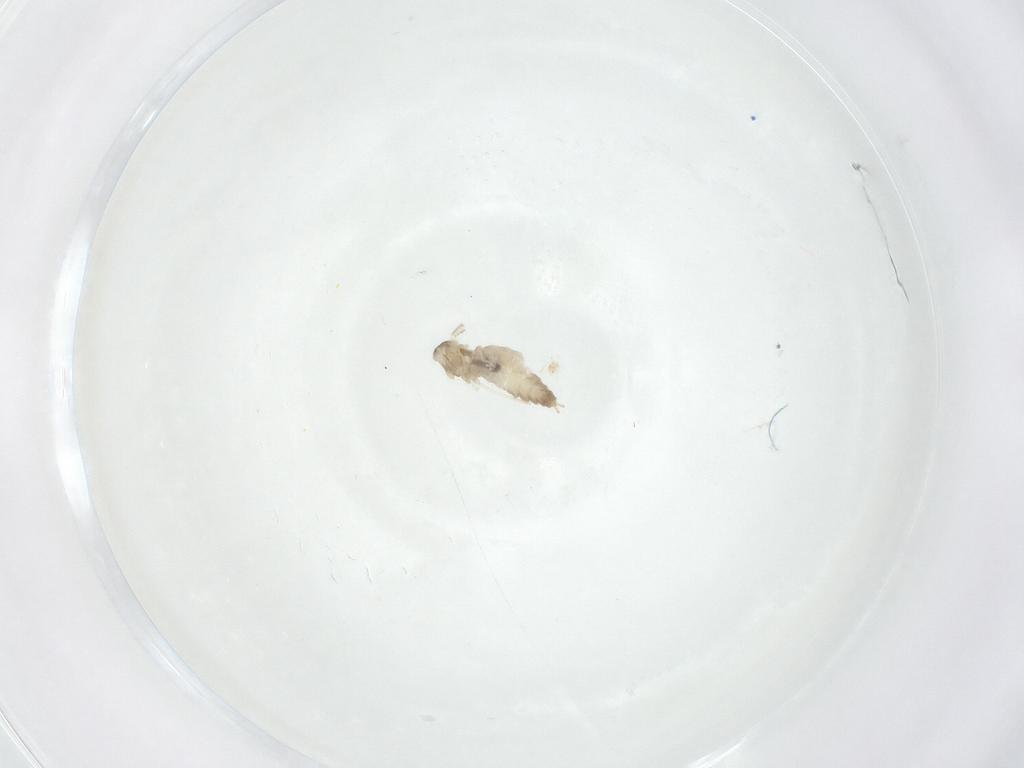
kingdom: Animalia
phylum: Arthropoda
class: Insecta
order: Diptera
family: Cecidomyiidae
